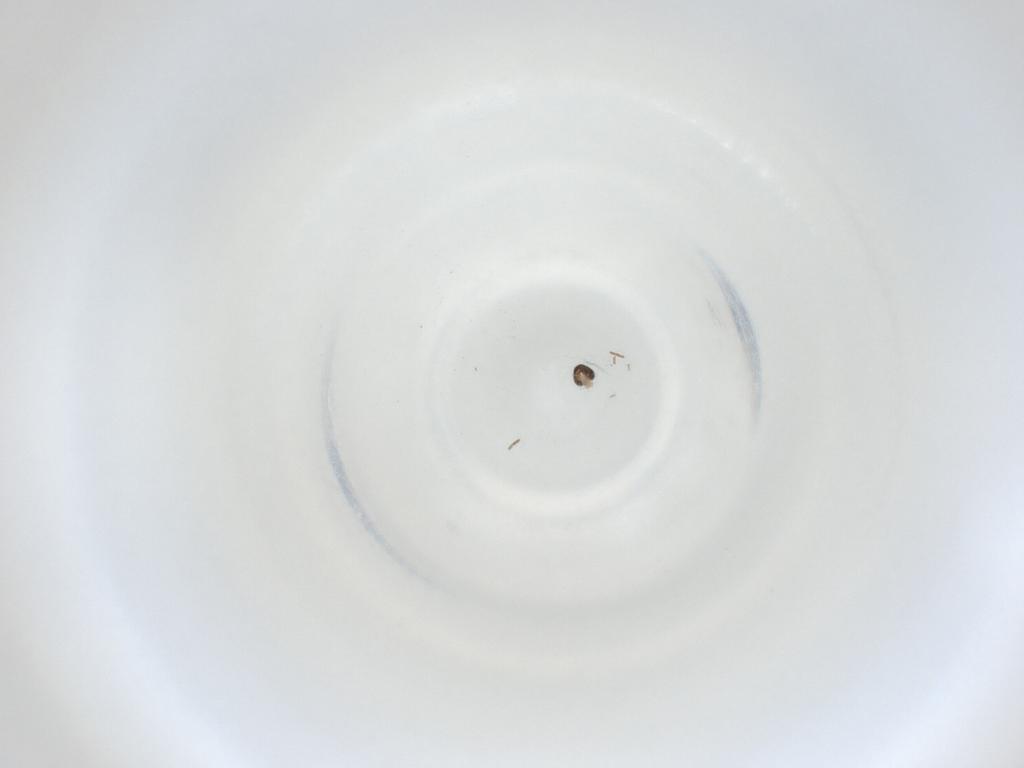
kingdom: Animalia
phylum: Arthropoda
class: Insecta
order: Diptera
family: Cecidomyiidae
